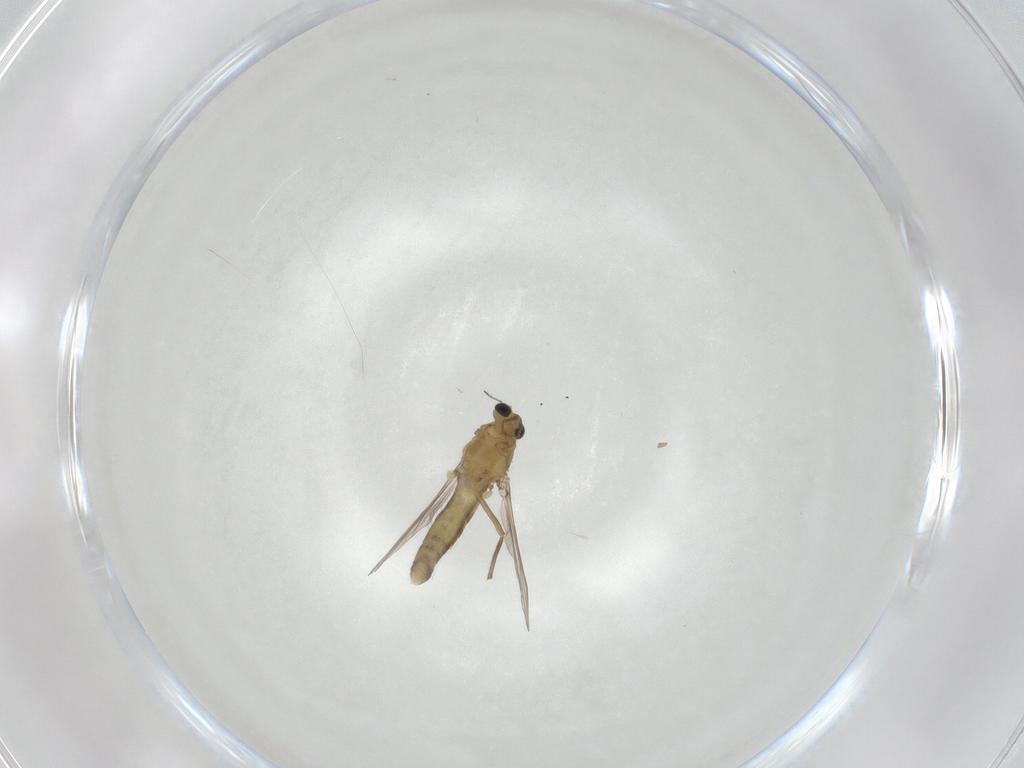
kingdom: Animalia
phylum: Arthropoda
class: Insecta
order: Diptera
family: Chironomidae
